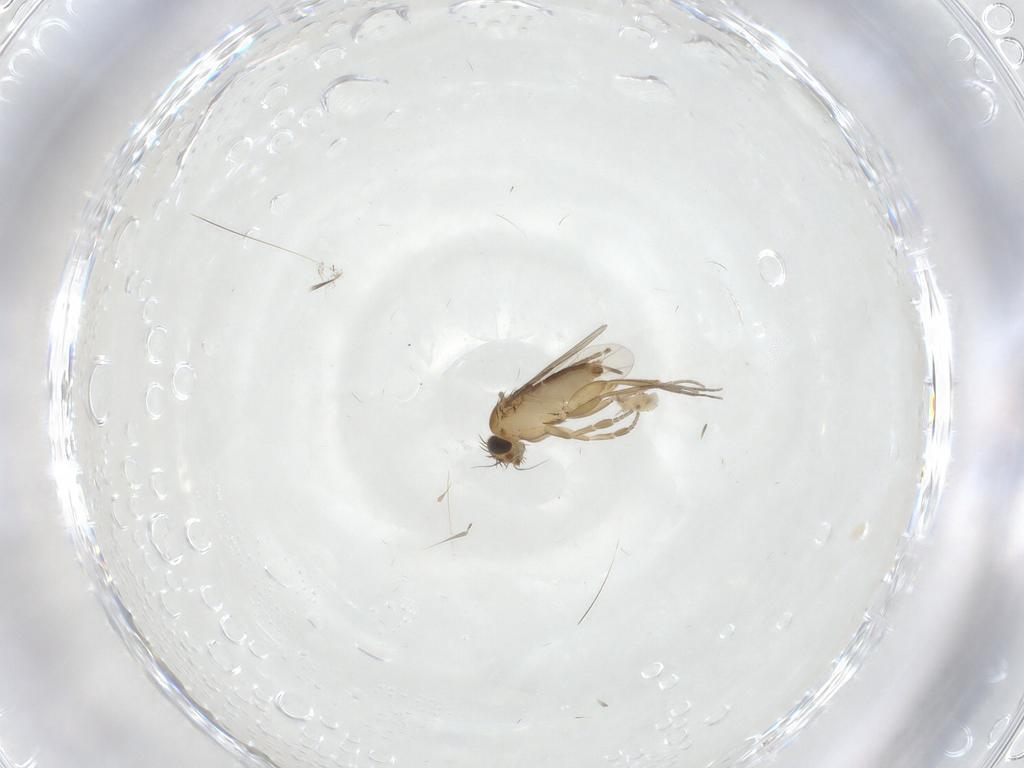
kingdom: Animalia
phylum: Arthropoda
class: Insecta
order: Diptera
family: Phoridae
